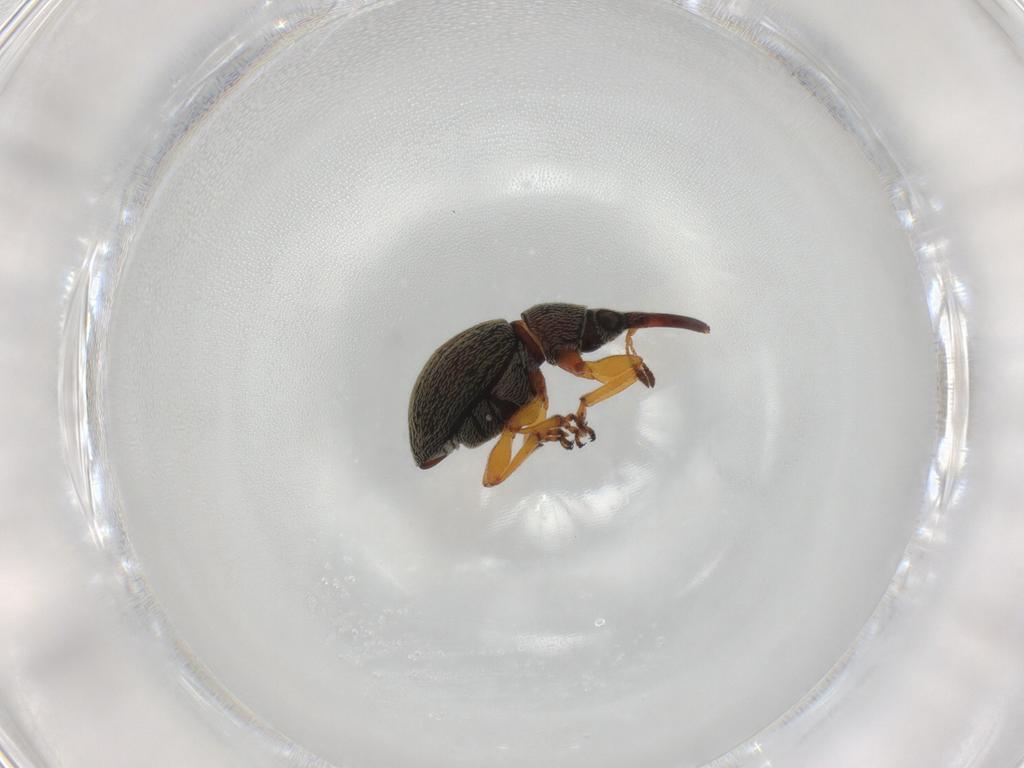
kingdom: Animalia
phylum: Arthropoda
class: Insecta
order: Coleoptera
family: Brentidae
